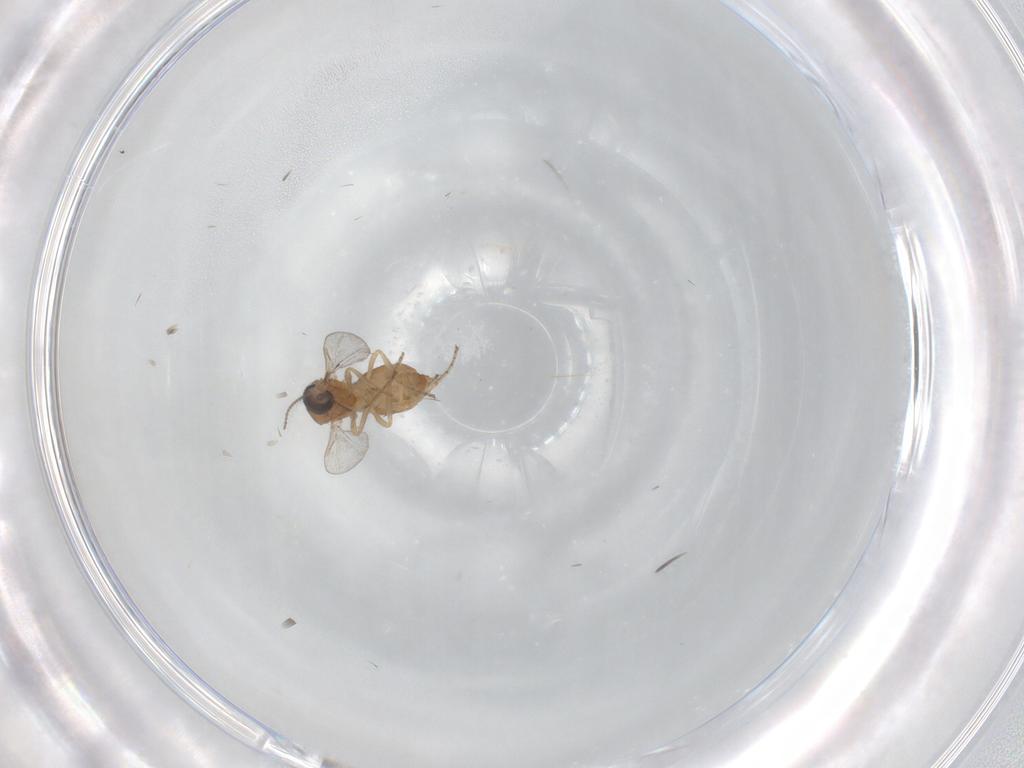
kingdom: Animalia
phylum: Arthropoda
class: Insecta
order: Diptera
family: Ceratopogonidae
